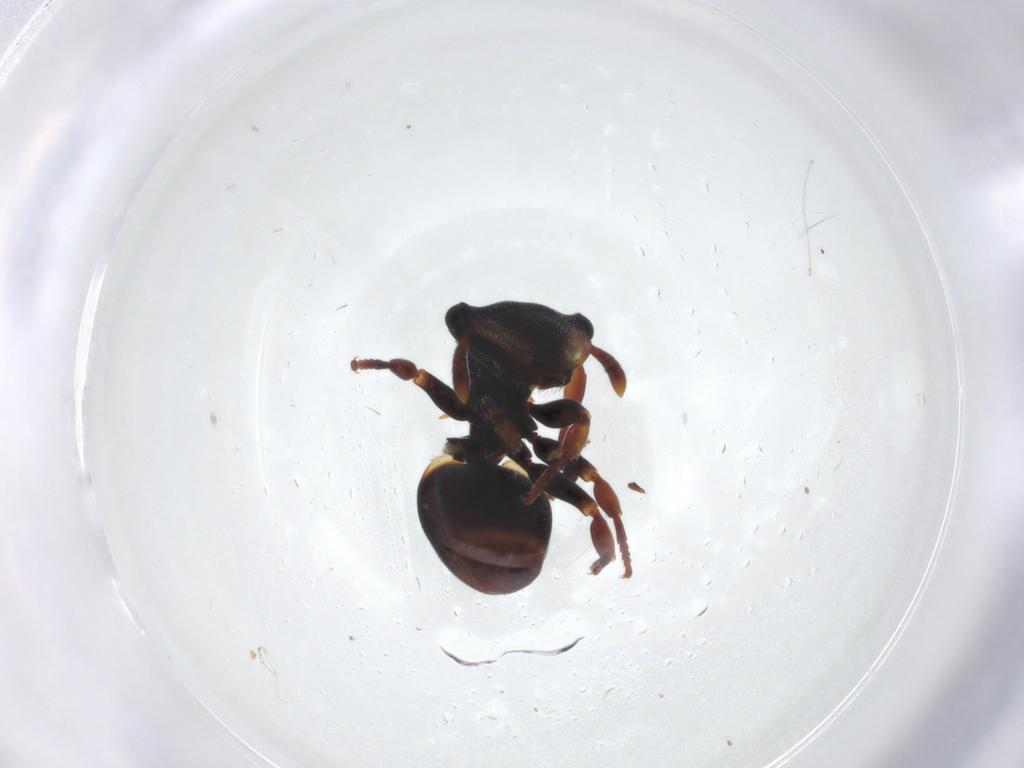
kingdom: Animalia
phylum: Arthropoda
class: Insecta
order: Hymenoptera
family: Formicidae
